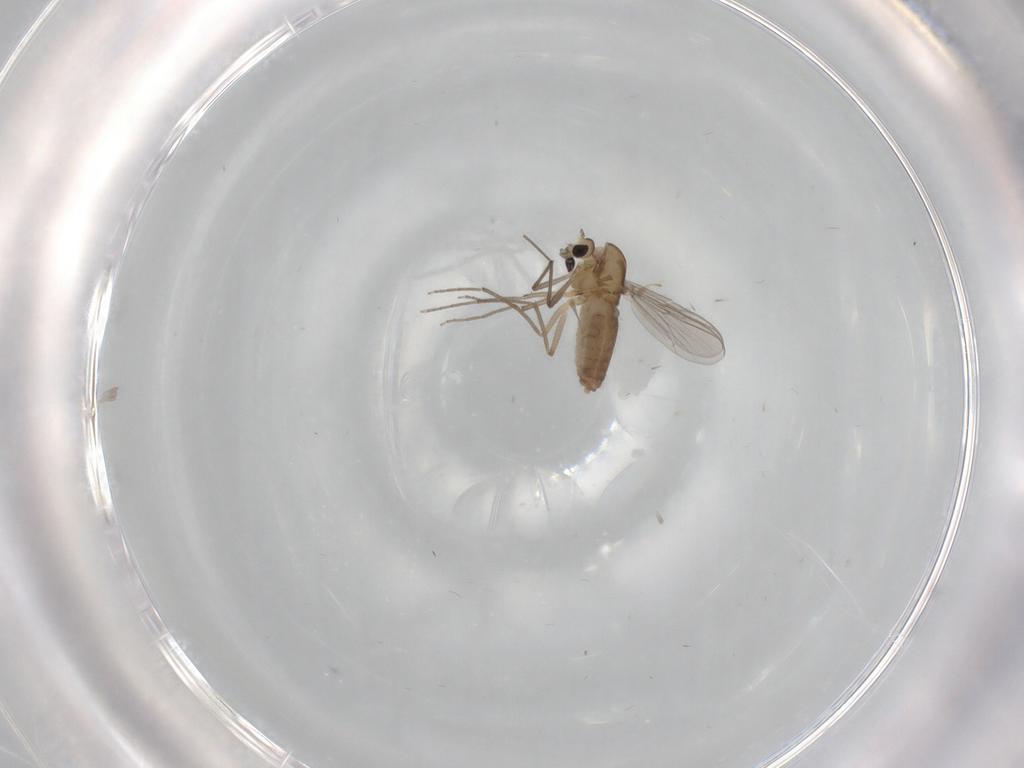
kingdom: Animalia
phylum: Arthropoda
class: Insecta
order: Diptera
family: Chironomidae
